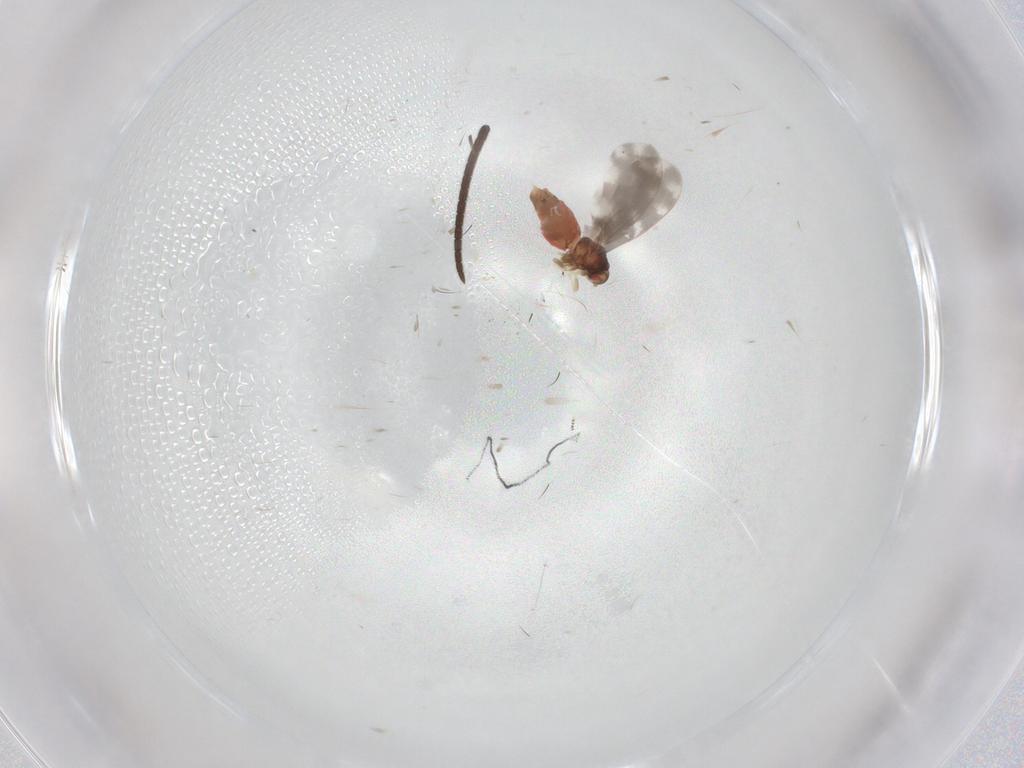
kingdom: Animalia
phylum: Arthropoda
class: Insecta
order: Hemiptera
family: Aleyrodidae
